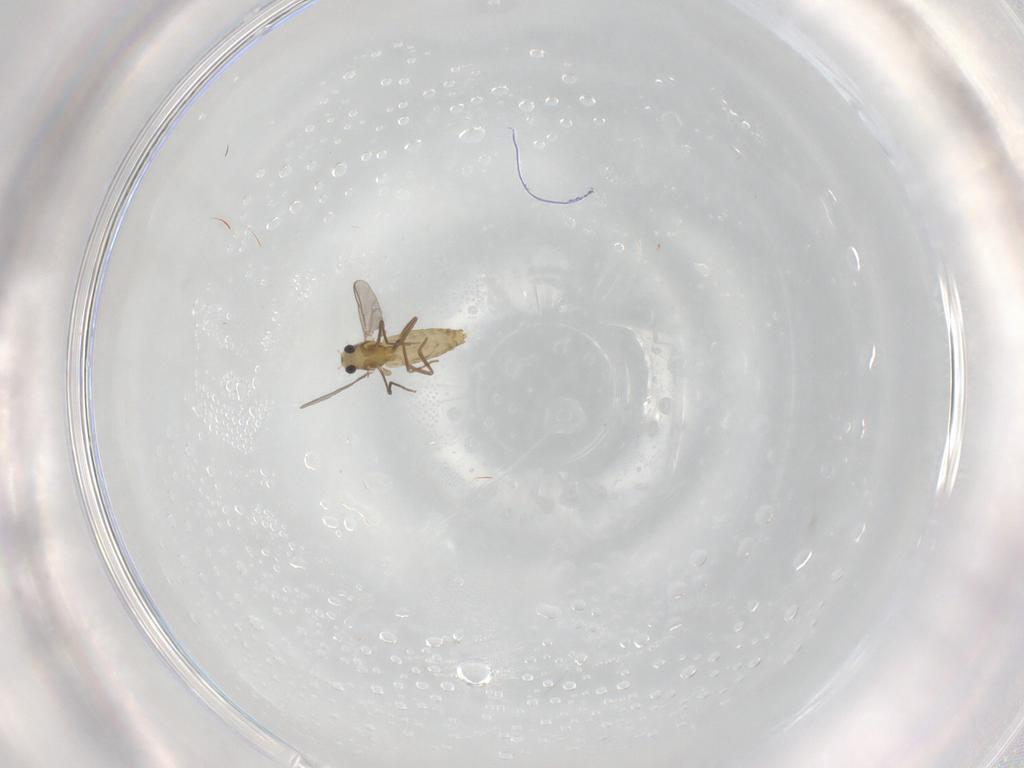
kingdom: Animalia
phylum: Arthropoda
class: Insecta
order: Diptera
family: Chironomidae
